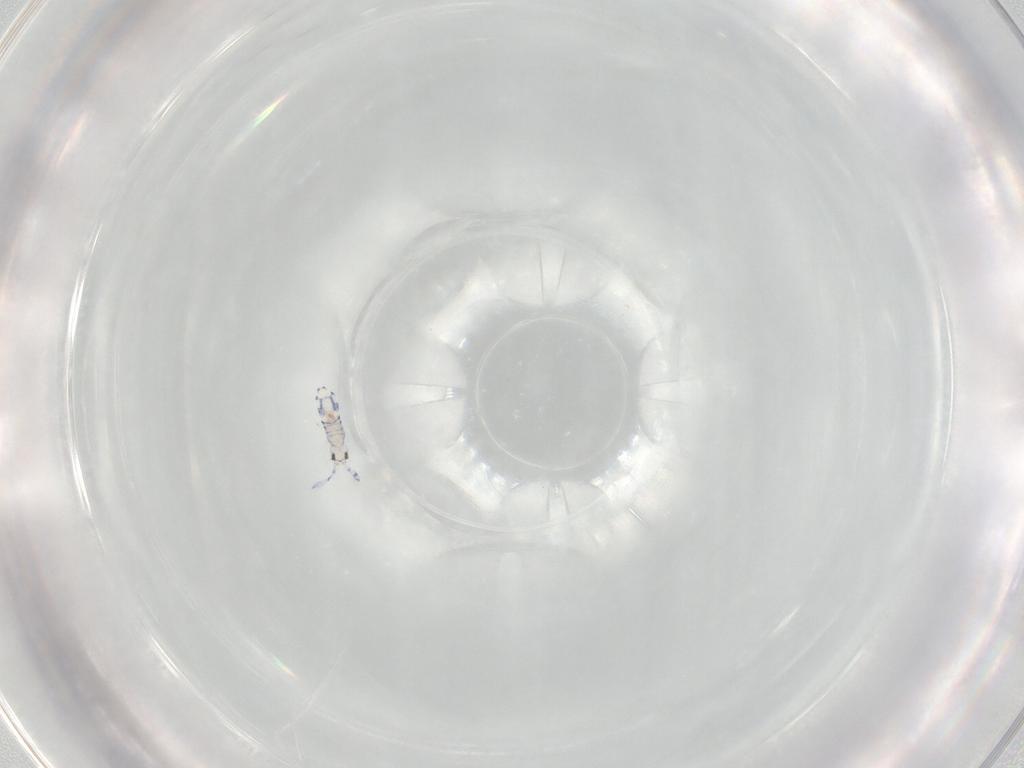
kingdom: Animalia
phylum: Arthropoda
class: Collembola
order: Entomobryomorpha
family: Entomobryidae
